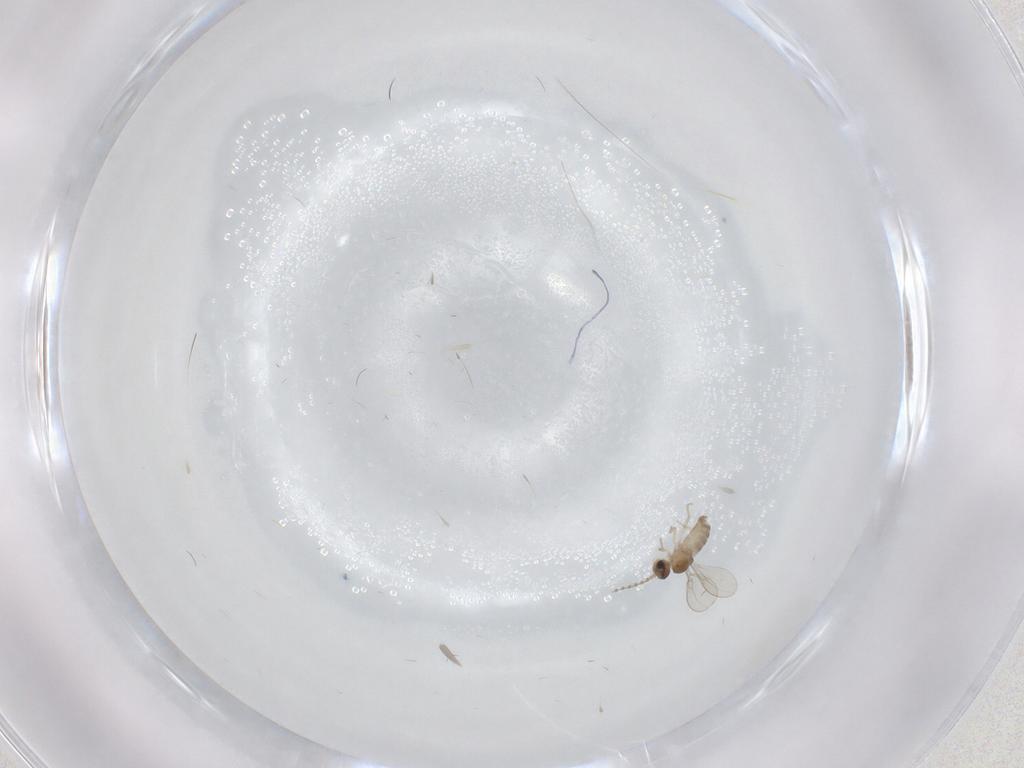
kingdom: Animalia
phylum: Arthropoda
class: Insecta
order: Diptera
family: Cecidomyiidae
